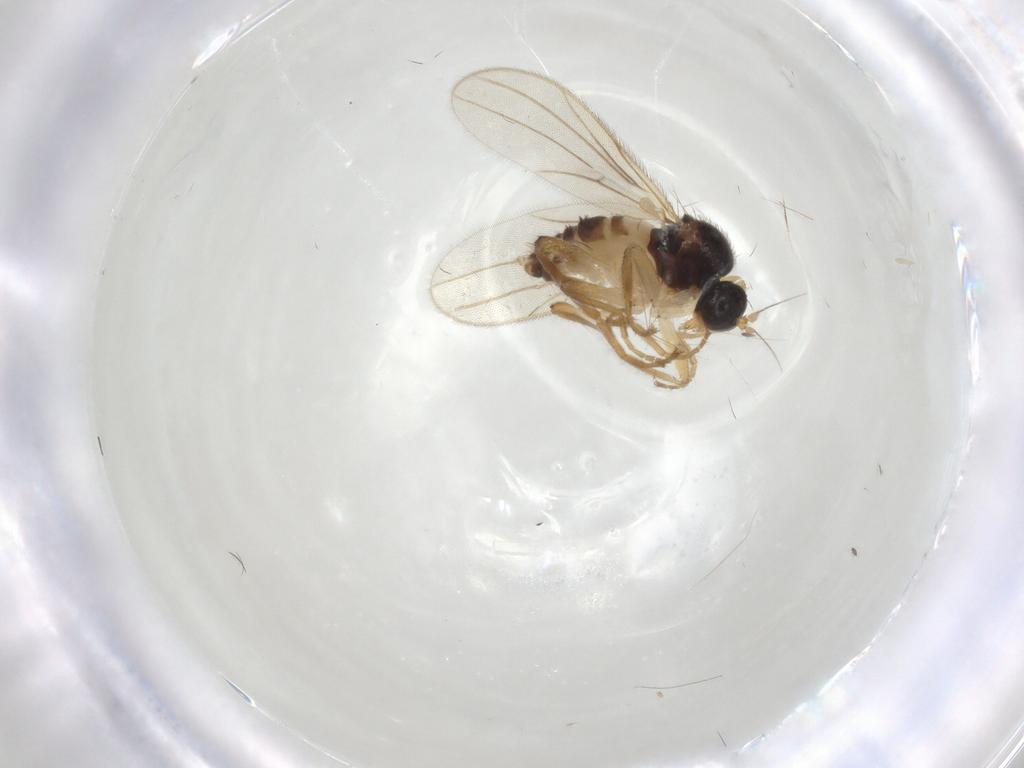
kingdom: Animalia
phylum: Arthropoda
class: Insecta
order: Diptera
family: Hybotidae
